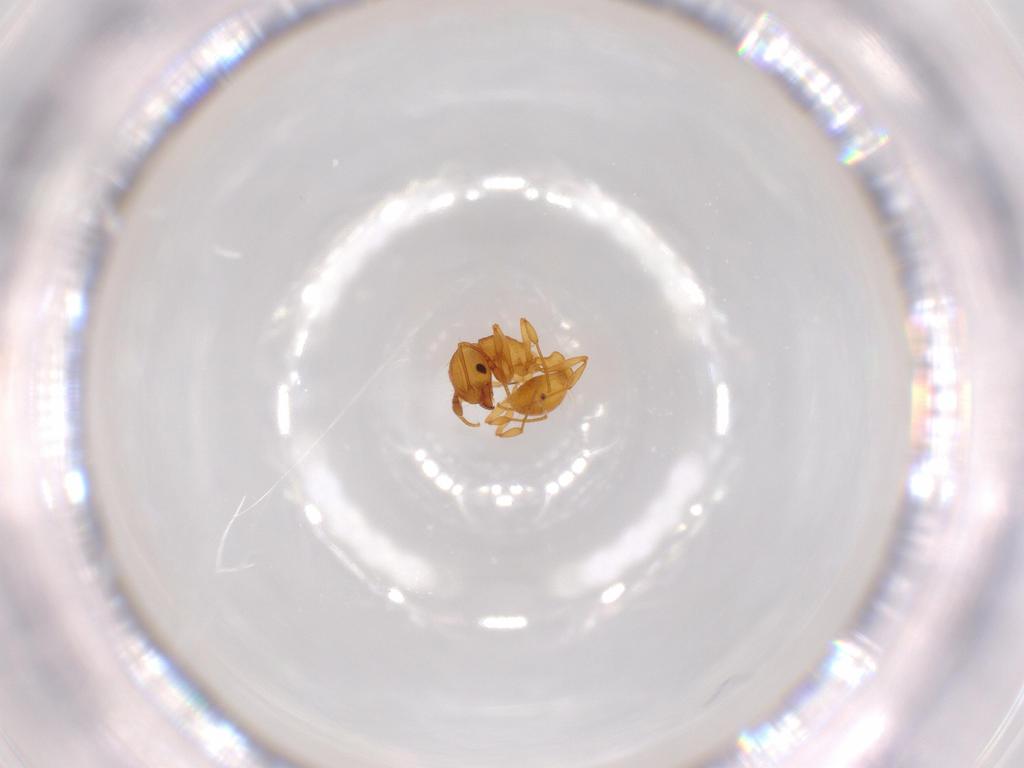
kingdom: Animalia
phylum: Arthropoda
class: Insecta
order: Hymenoptera
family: Formicidae
